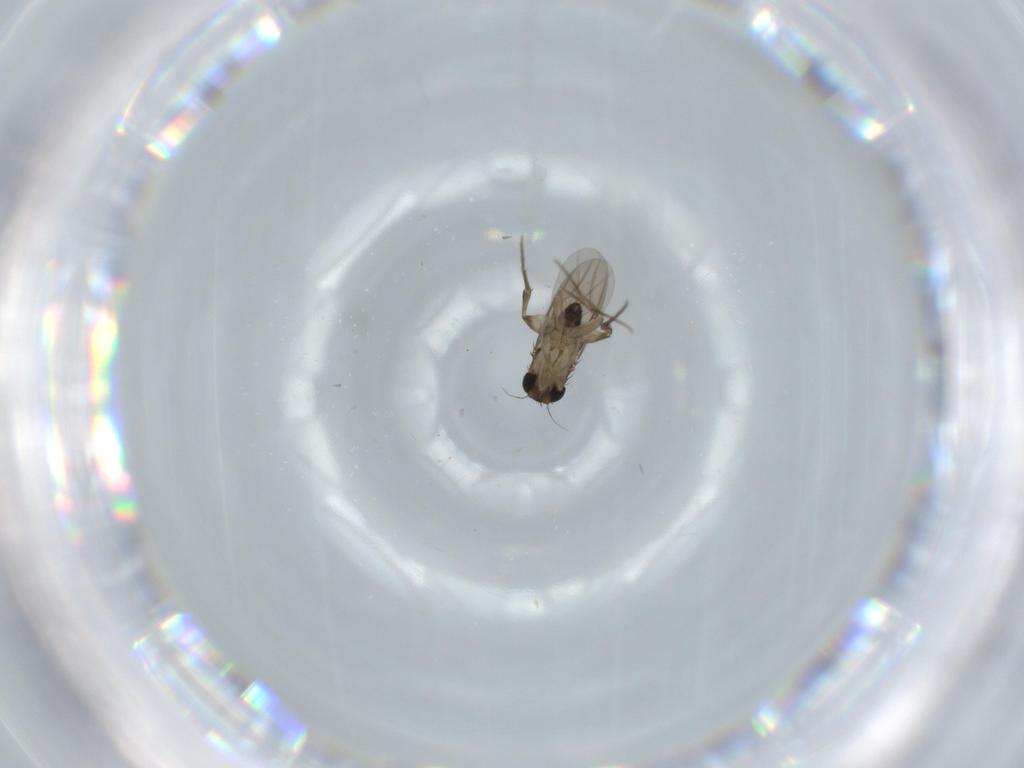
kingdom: Animalia
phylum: Arthropoda
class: Insecta
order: Diptera
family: Phoridae
